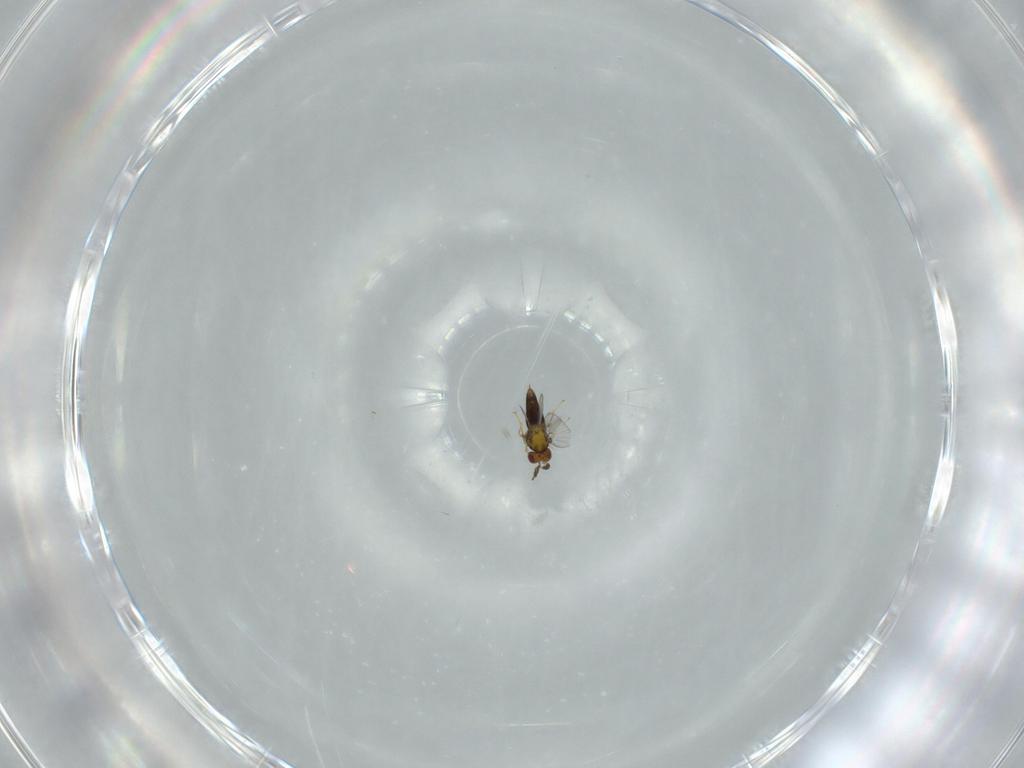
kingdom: Animalia
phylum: Arthropoda
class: Insecta
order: Hymenoptera
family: Trichogrammatidae
